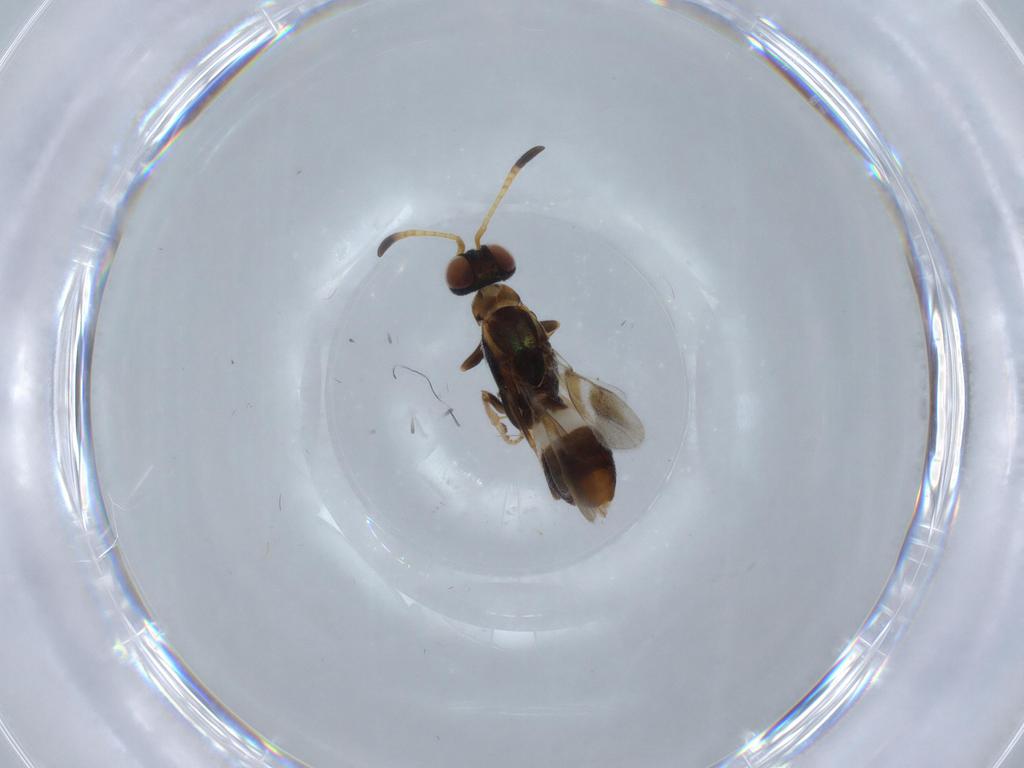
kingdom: Animalia
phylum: Arthropoda
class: Insecta
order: Hymenoptera
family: Eupelmidae
